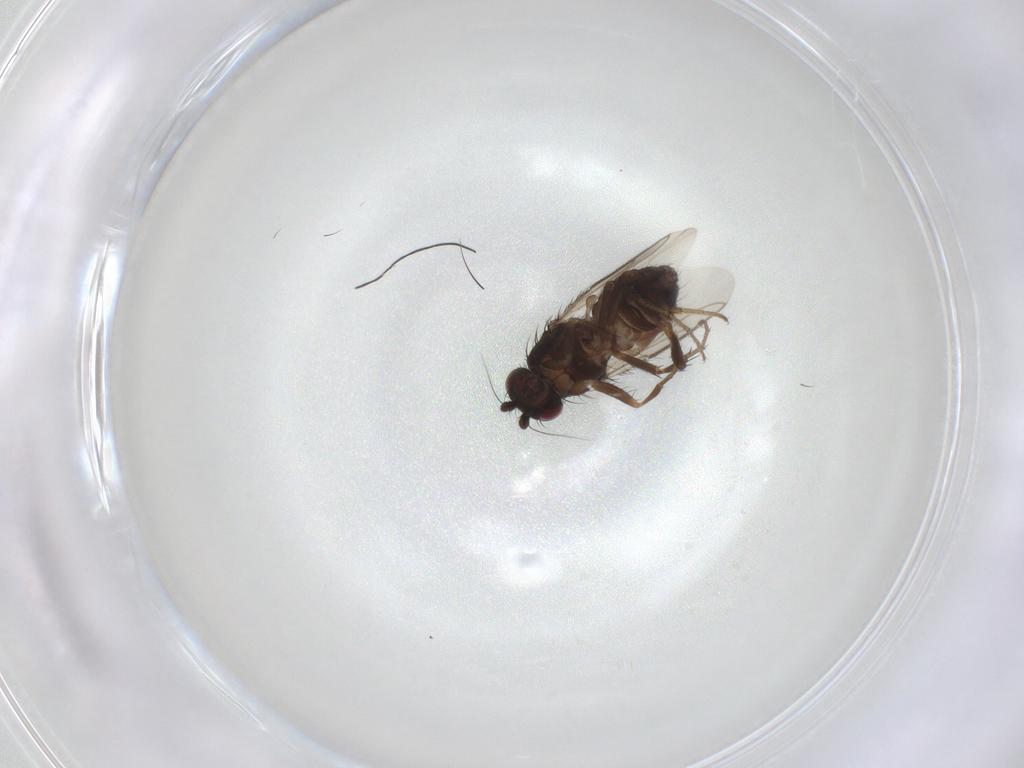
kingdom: Animalia
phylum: Arthropoda
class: Insecta
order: Diptera
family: Sphaeroceridae
